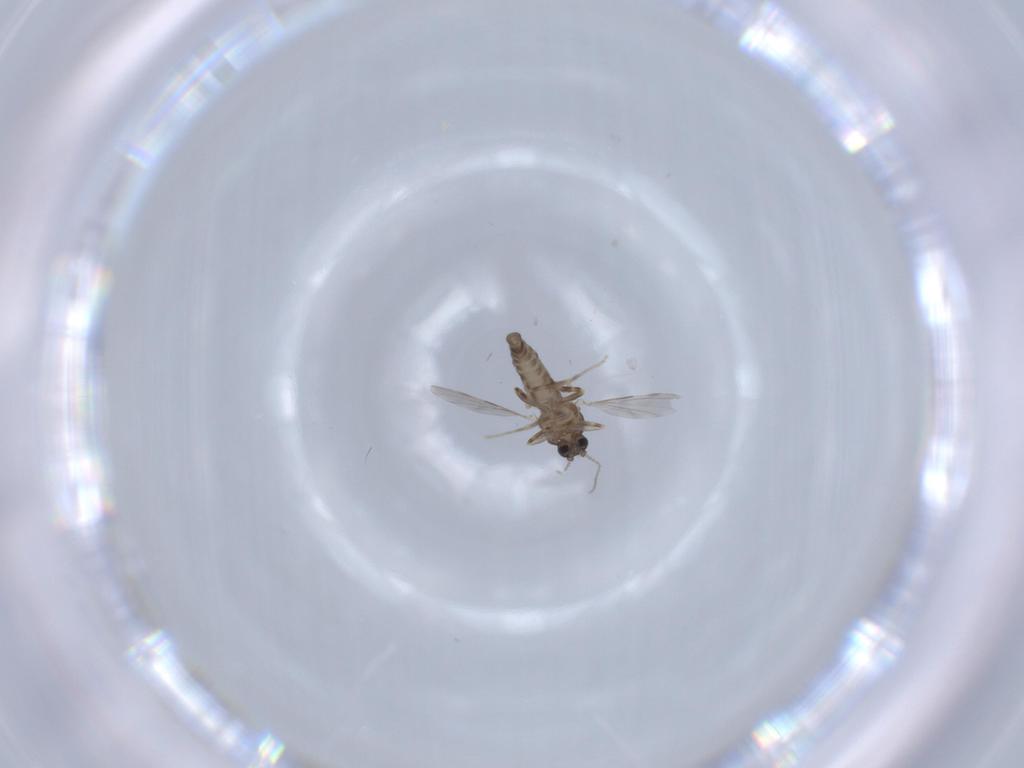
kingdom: Animalia
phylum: Arthropoda
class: Insecta
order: Diptera
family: Ceratopogonidae
